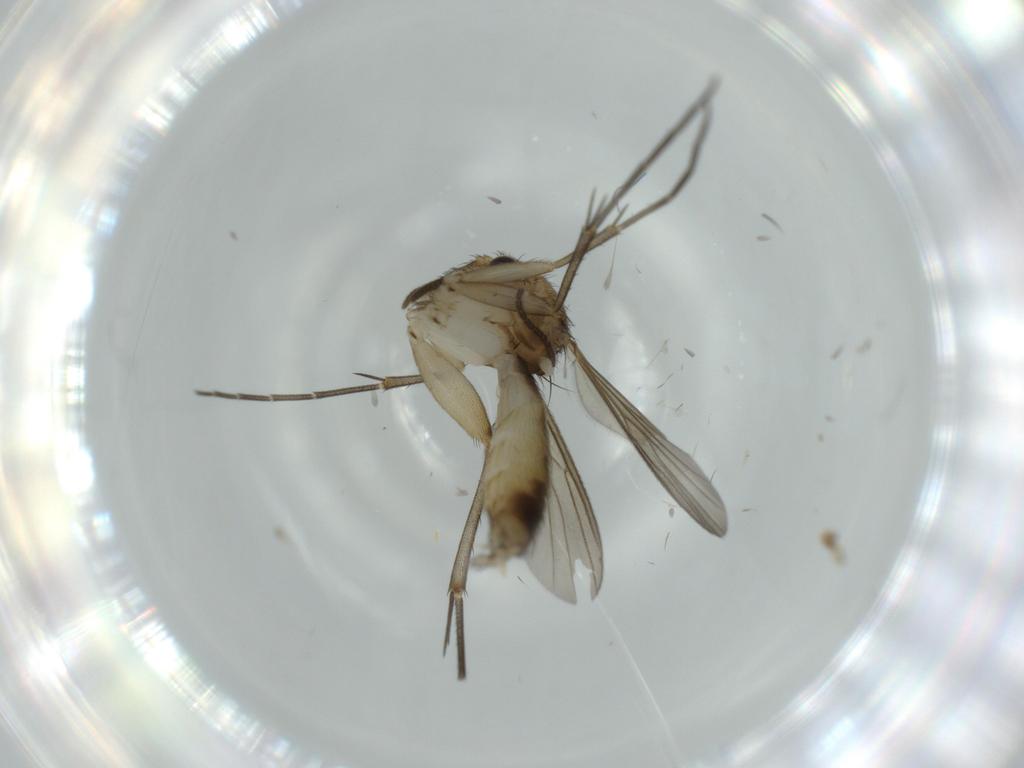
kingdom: Animalia
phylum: Arthropoda
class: Insecta
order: Diptera
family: Sciaridae
